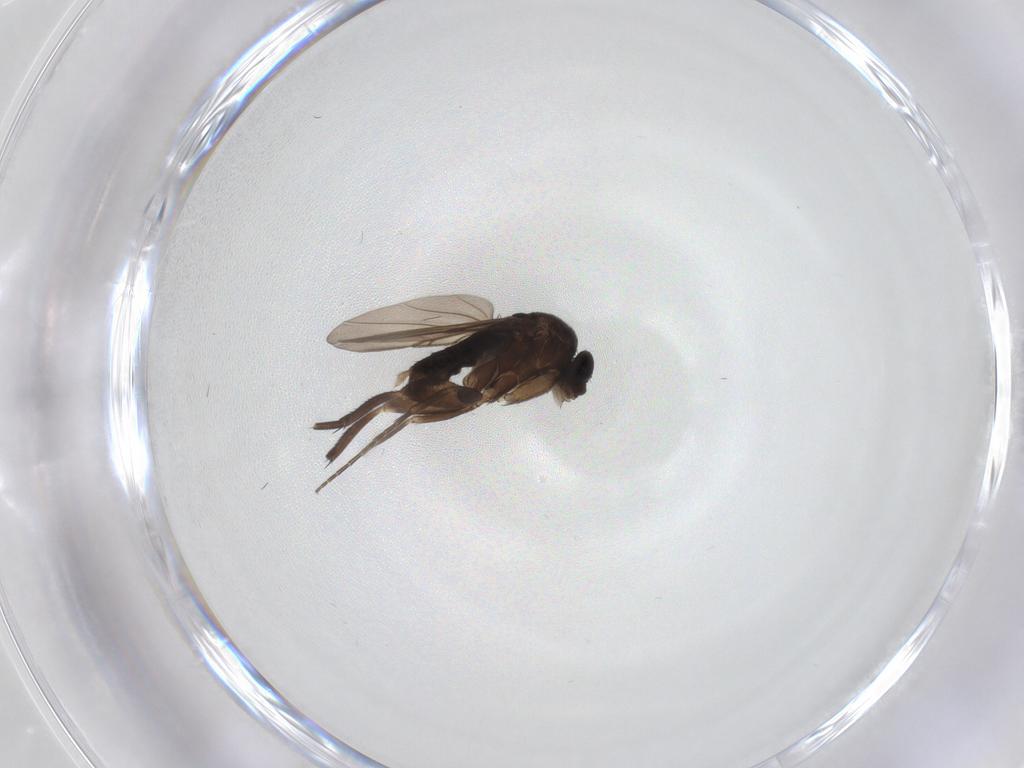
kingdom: Animalia
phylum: Arthropoda
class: Insecta
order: Diptera
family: Phoridae
